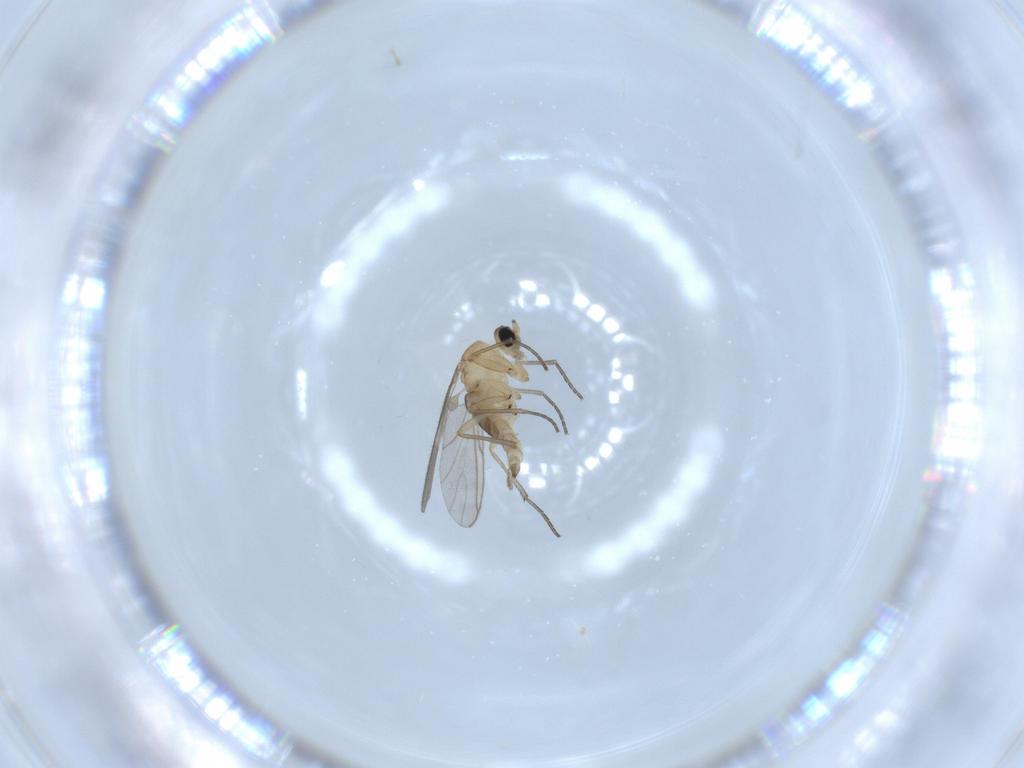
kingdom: Animalia
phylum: Arthropoda
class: Insecta
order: Diptera
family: Sciaridae
